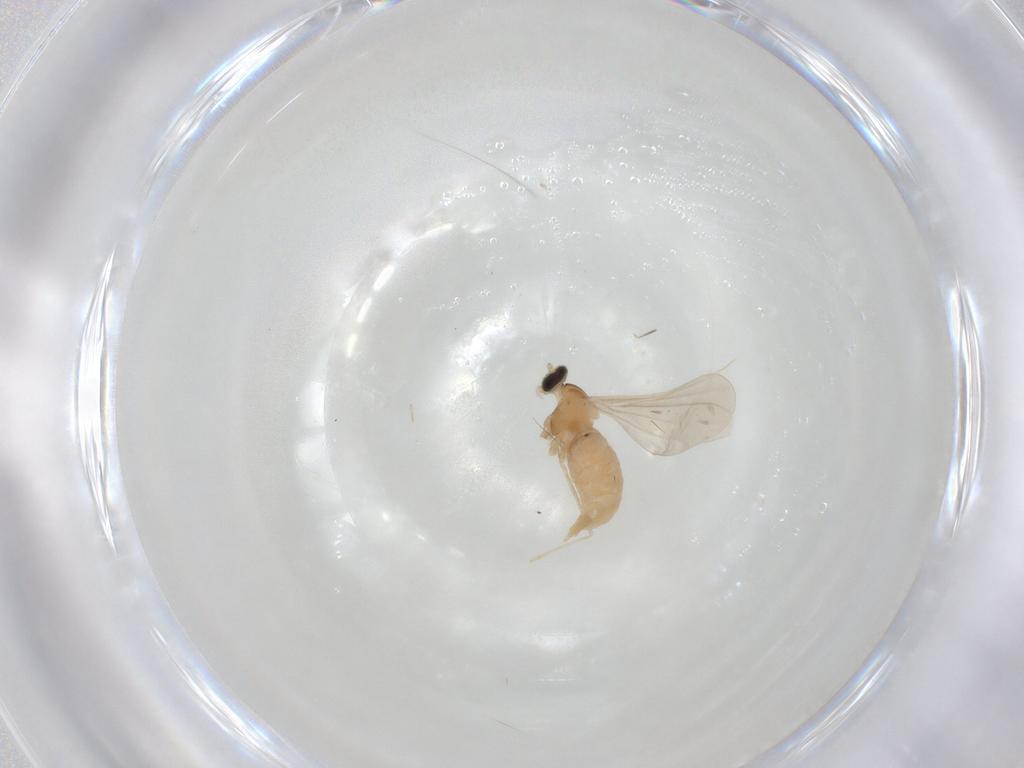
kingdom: Animalia
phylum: Arthropoda
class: Insecta
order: Diptera
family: Cecidomyiidae
